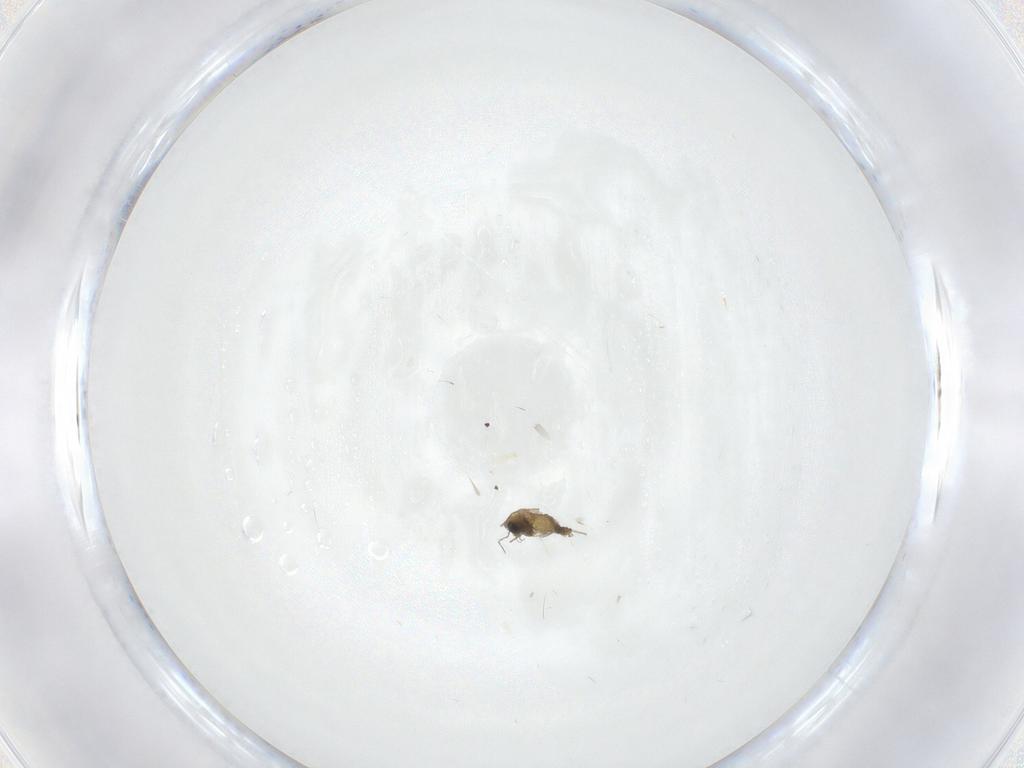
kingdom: Animalia
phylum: Arthropoda
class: Insecta
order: Diptera
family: Chironomidae
